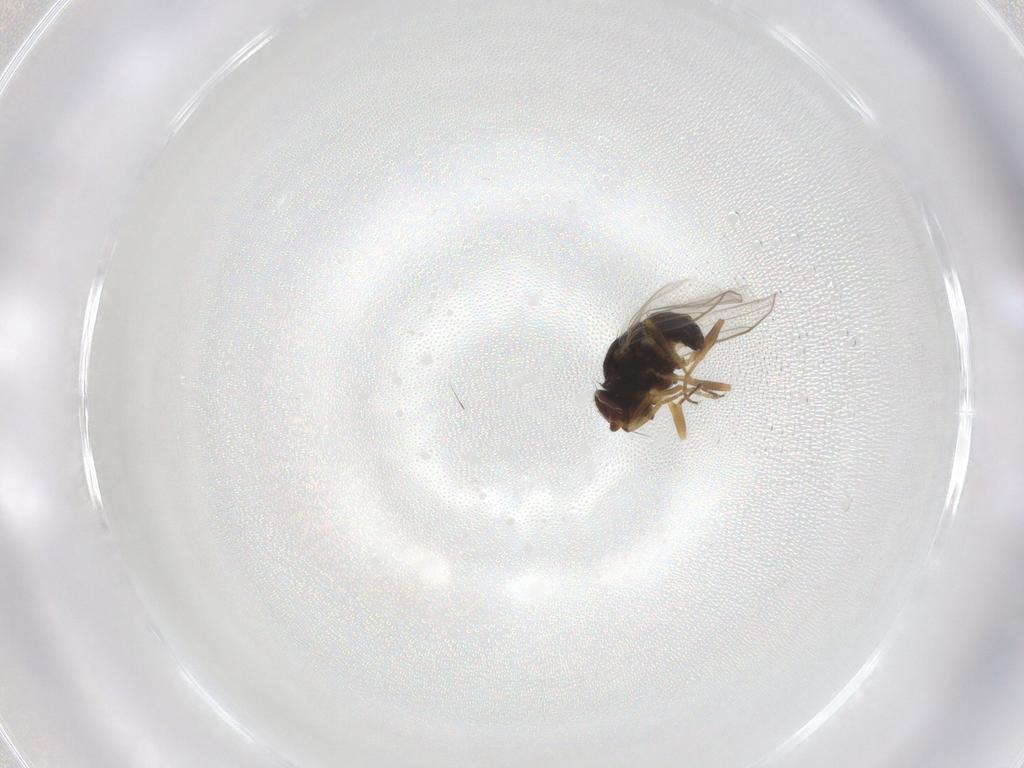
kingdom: Animalia
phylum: Arthropoda
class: Insecta
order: Diptera
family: Chloropidae
